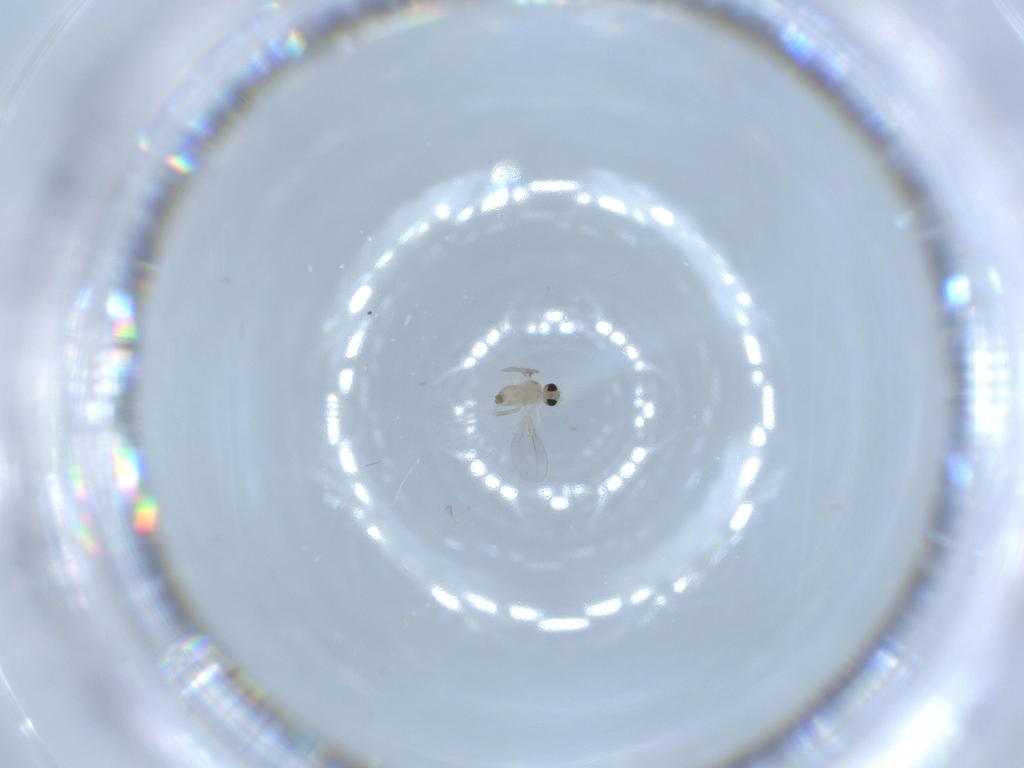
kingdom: Animalia
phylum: Arthropoda
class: Insecta
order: Diptera
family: Cecidomyiidae
